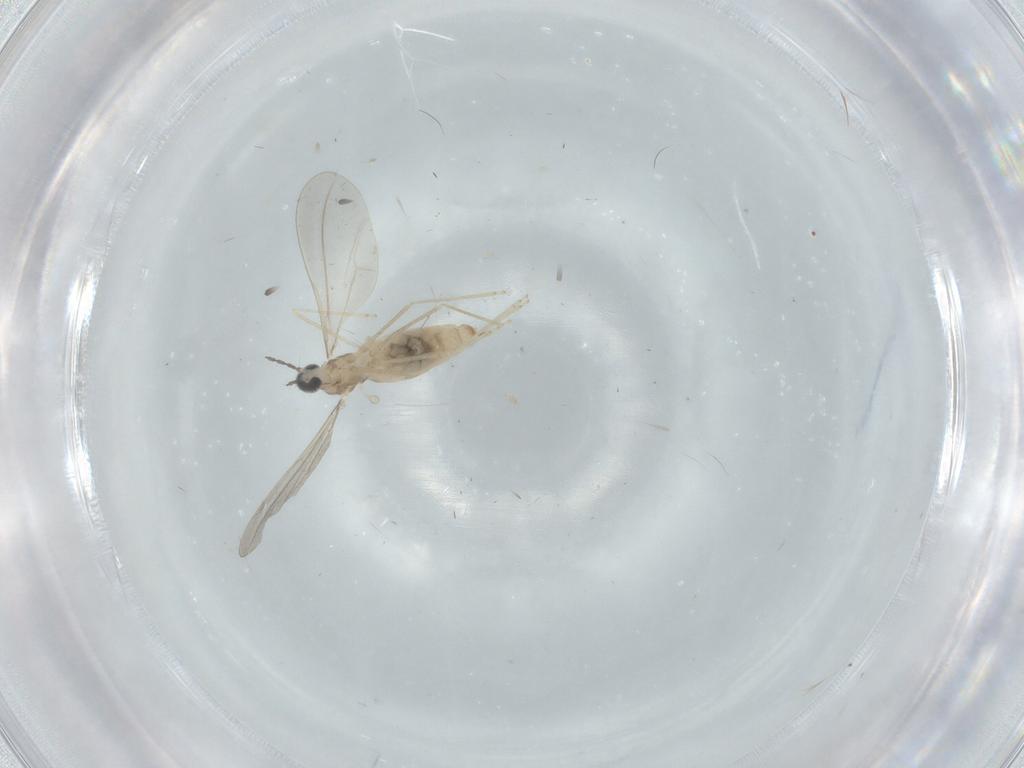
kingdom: Animalia
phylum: Arthropoda
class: Insecta
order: Diptera
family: Cecidomyiidae
